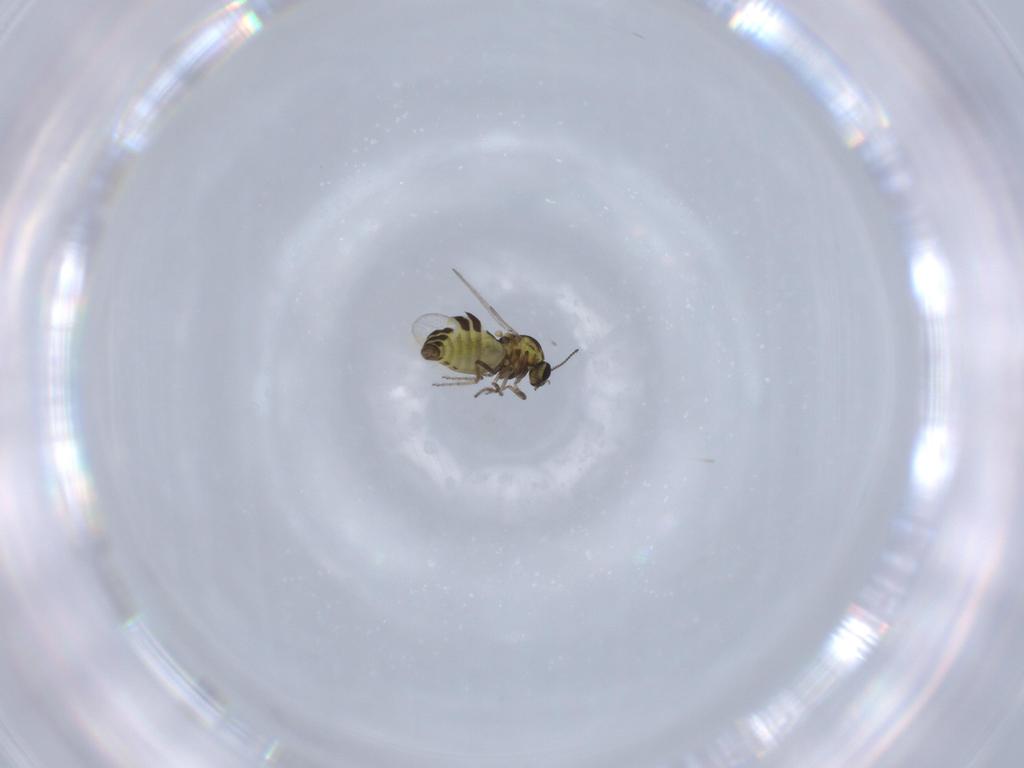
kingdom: Animalia
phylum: Arthropoda
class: Insecta
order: Diptera
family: Ceratopogonidae
